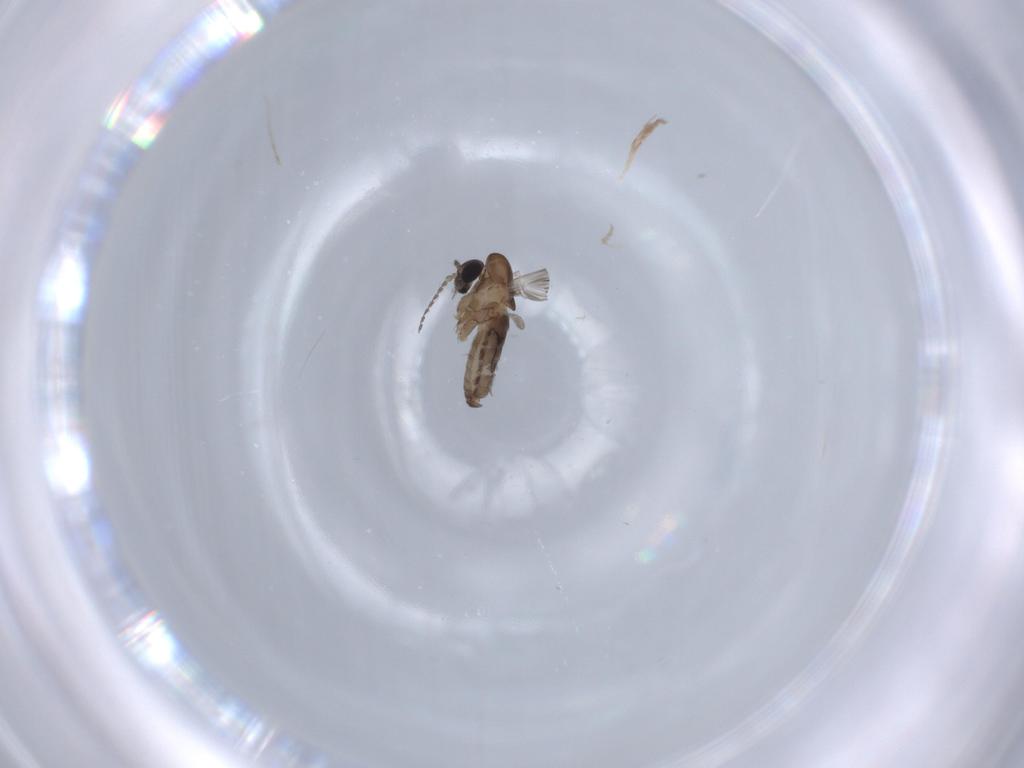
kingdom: Animalia
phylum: Arthropoda
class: Insecta
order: Diptera
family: Psychodidae
